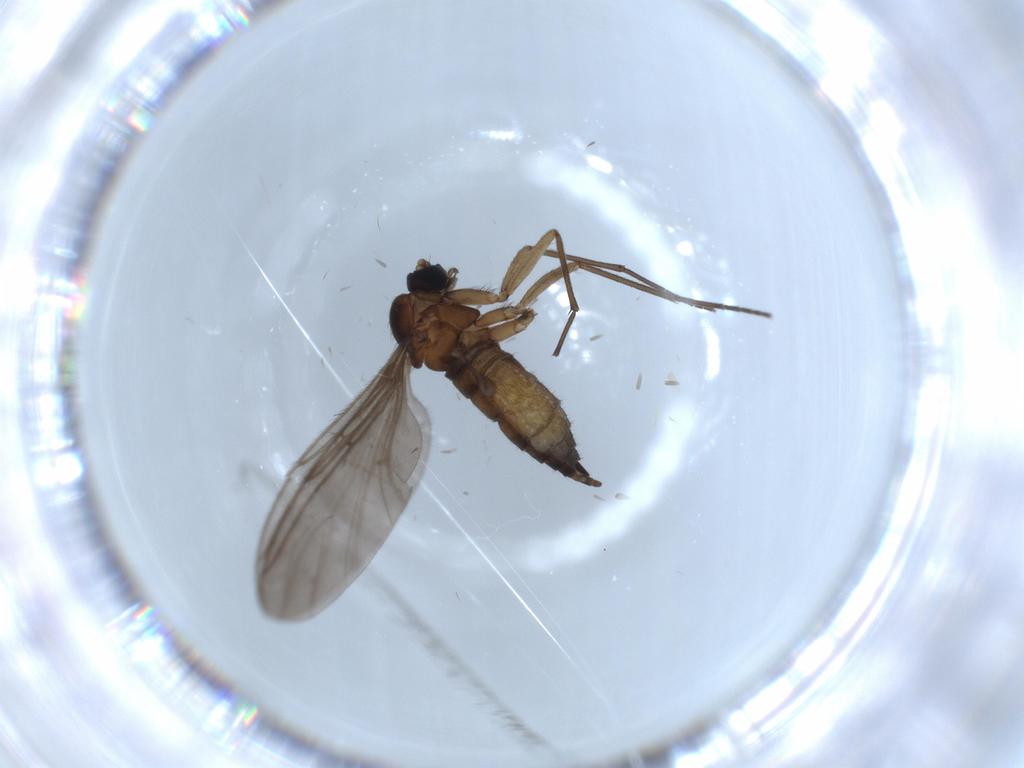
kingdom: Animalia
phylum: Arthropoda
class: Insecta
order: Diptera
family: Sciaridae
